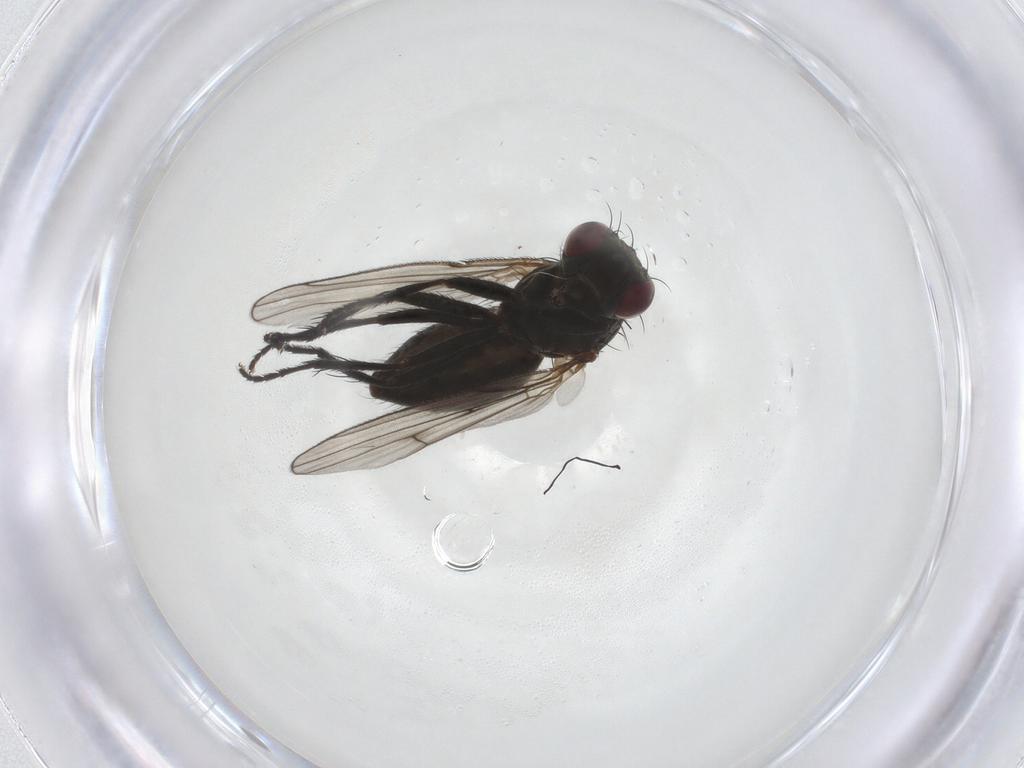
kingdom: Animalia
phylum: Arthropoda
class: Insecta
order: Diptera
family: Muscidae
